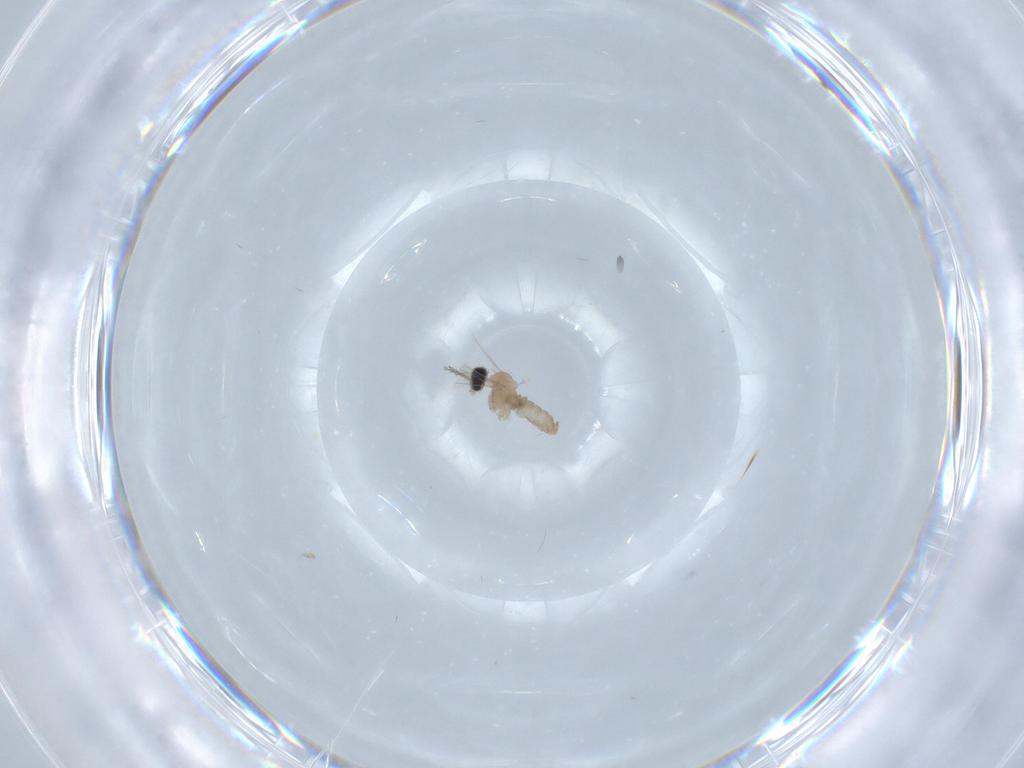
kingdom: Animalia
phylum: Arthropoda
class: Insecta
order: Diptera
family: Cecidomyiidae
